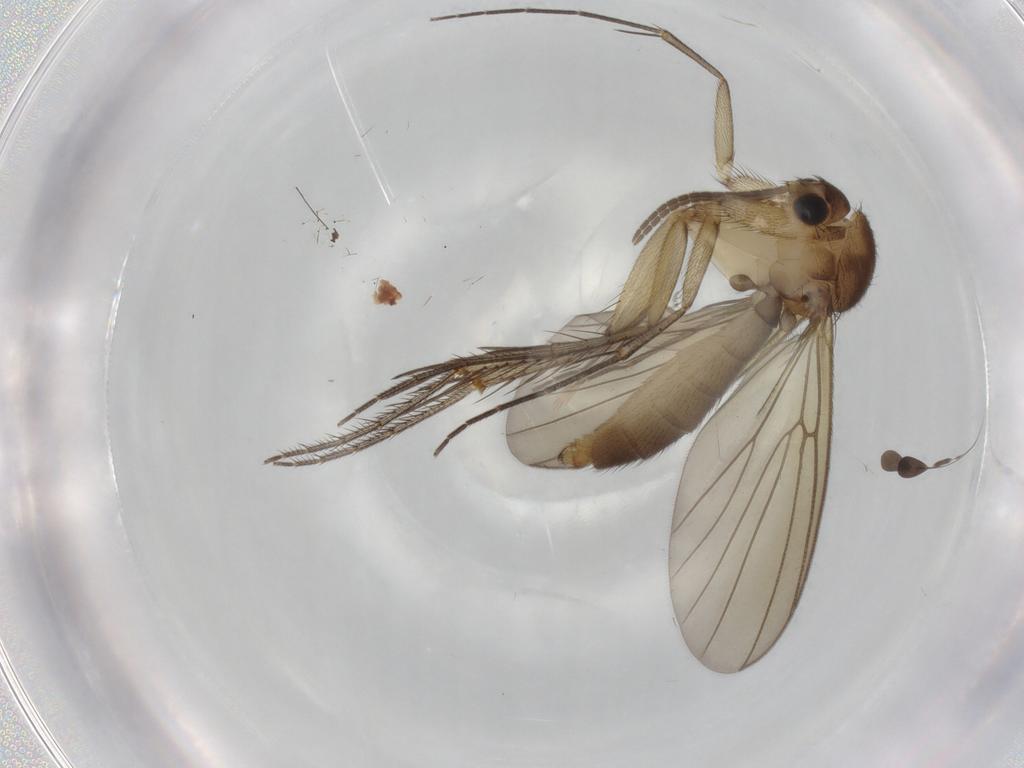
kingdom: Animalia
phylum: Arthropoda
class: Insecta
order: Diptera
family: Mycetophilidae
